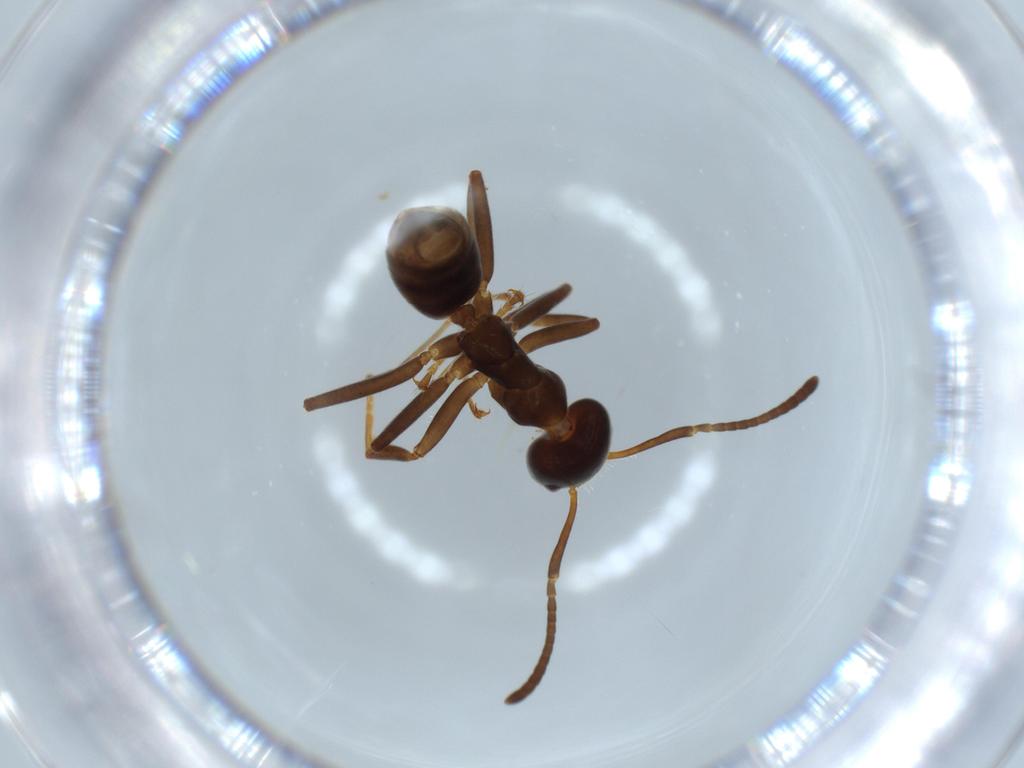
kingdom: Animalia
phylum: Arthropoda
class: Insecta
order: Hymenoptera
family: Formicidae
